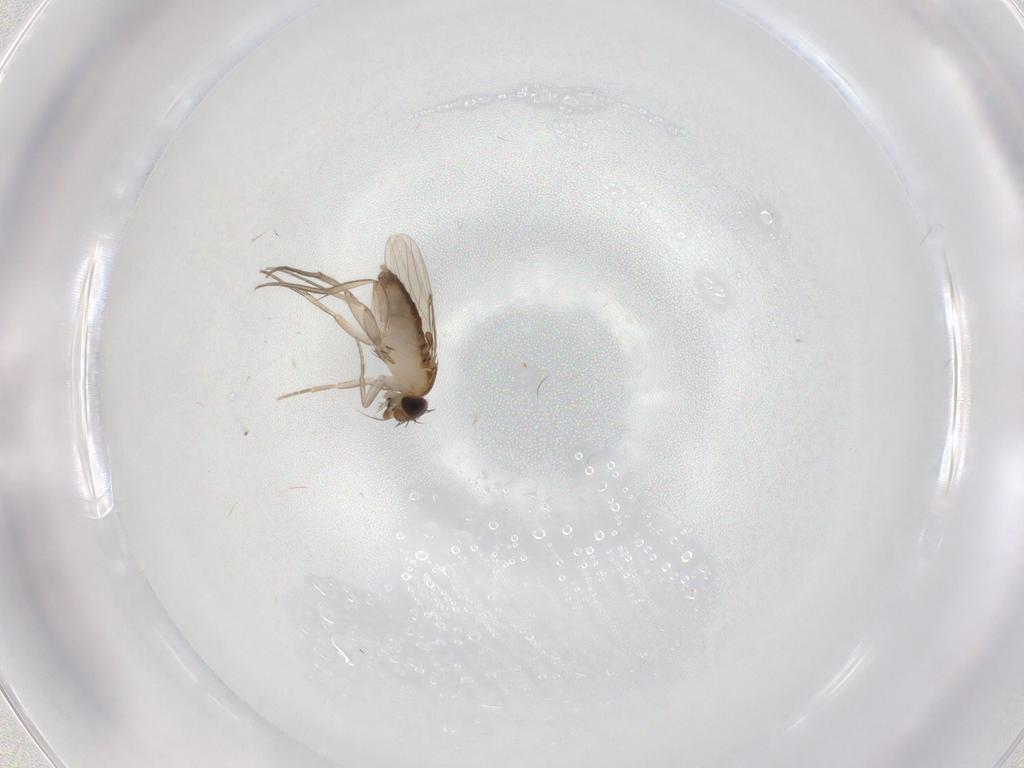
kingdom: Animalia
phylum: Arthropoda
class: Insecta
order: Diptera
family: Phoridae
